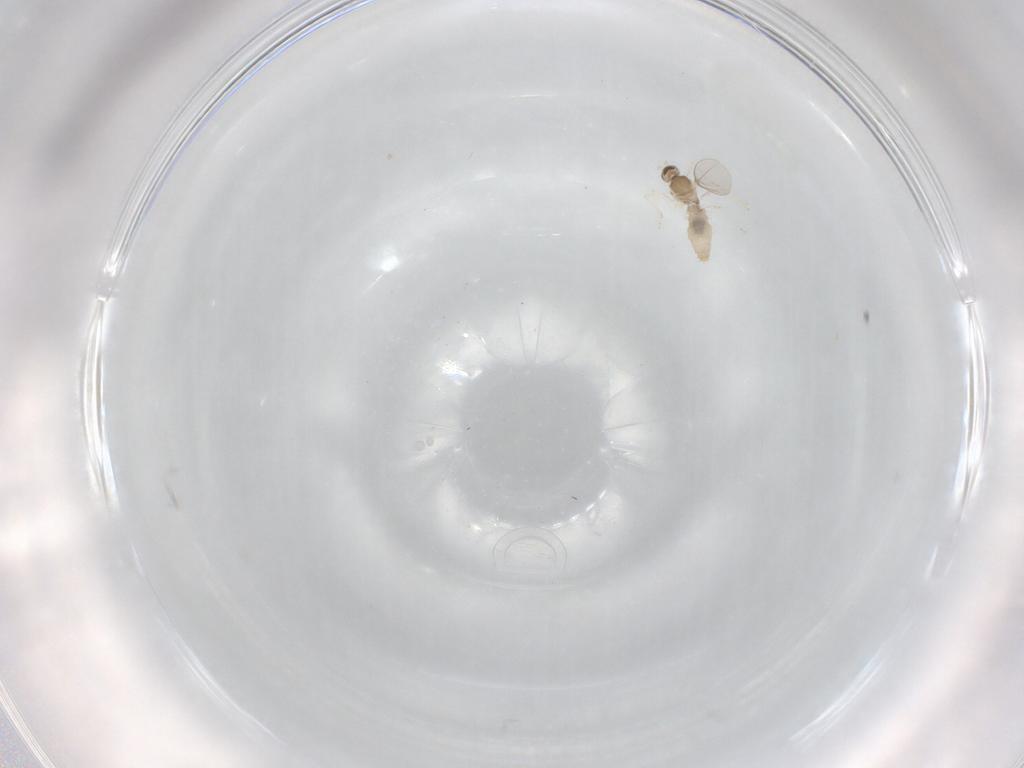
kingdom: Animalia
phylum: Arthropoda
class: Insecta
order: Diptera
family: Cecidomyiidae
